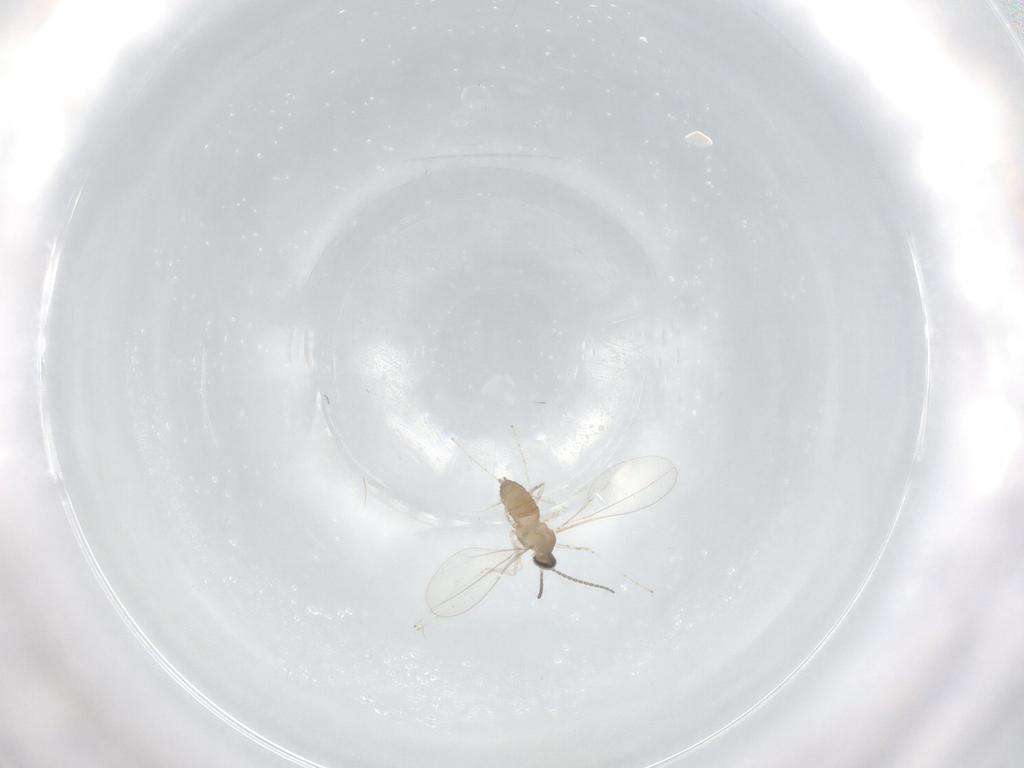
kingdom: Animalia
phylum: Arthropoda
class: Insecta
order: Diptera
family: Cecidomyiidae
